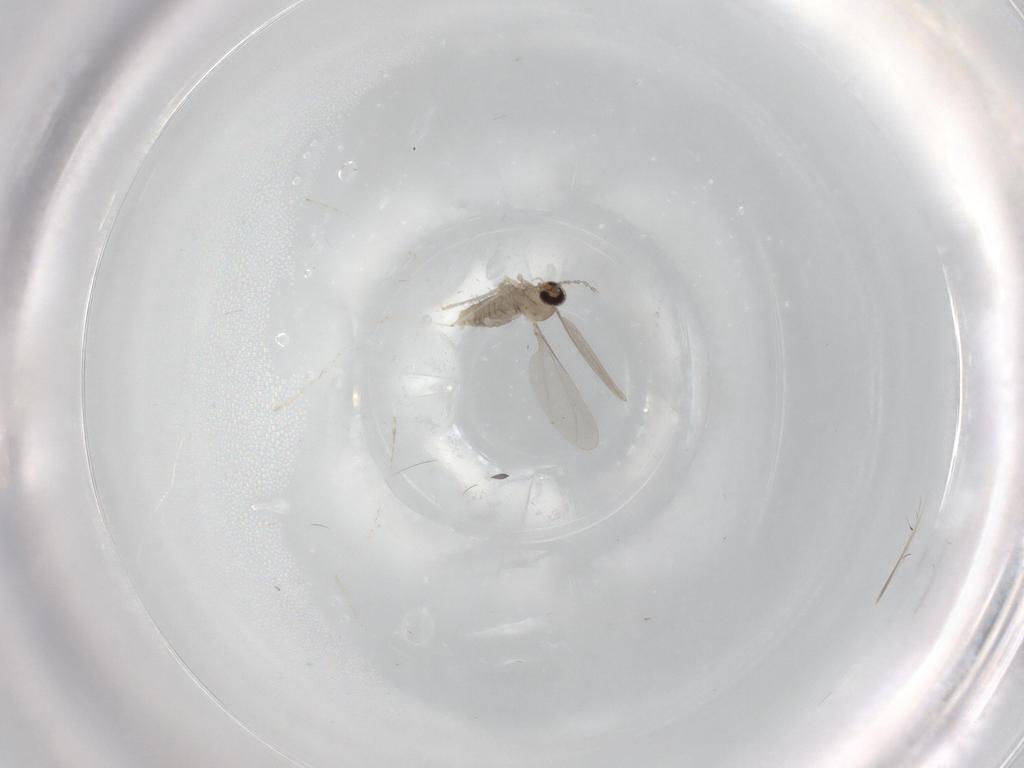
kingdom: Animalia
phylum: Arthropoda
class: Insecta
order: Diptera
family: Cecidomyiidae
